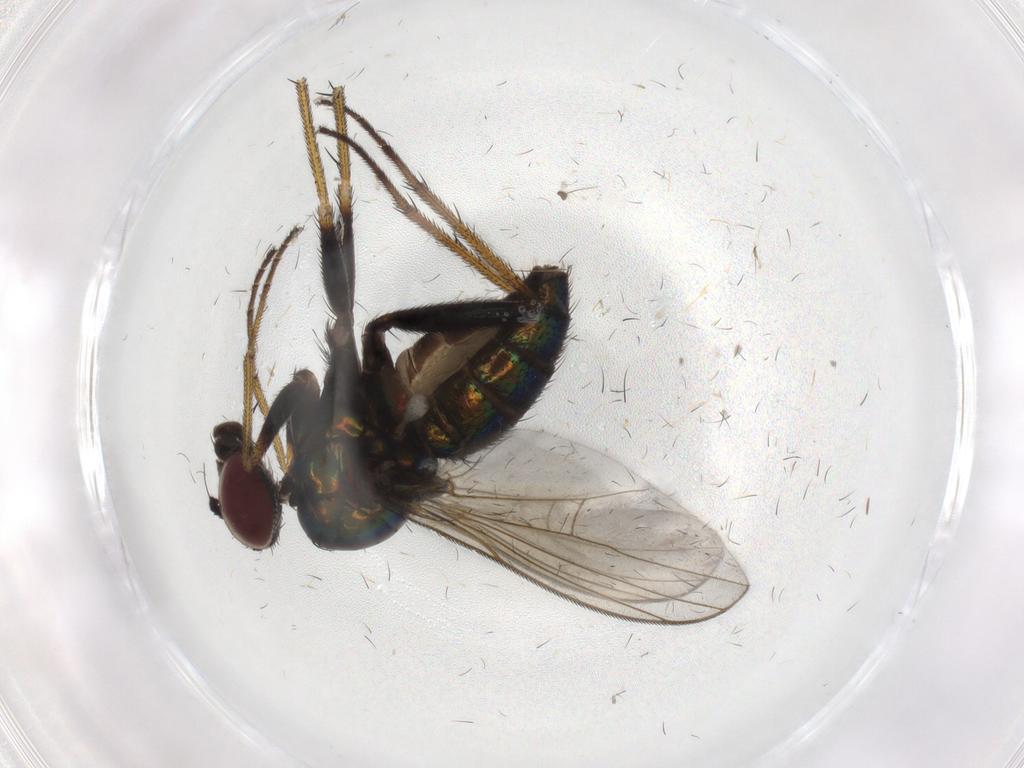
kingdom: Animalia
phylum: Arthropoda
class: Insecta
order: Diptera
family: Dolichopodidae
